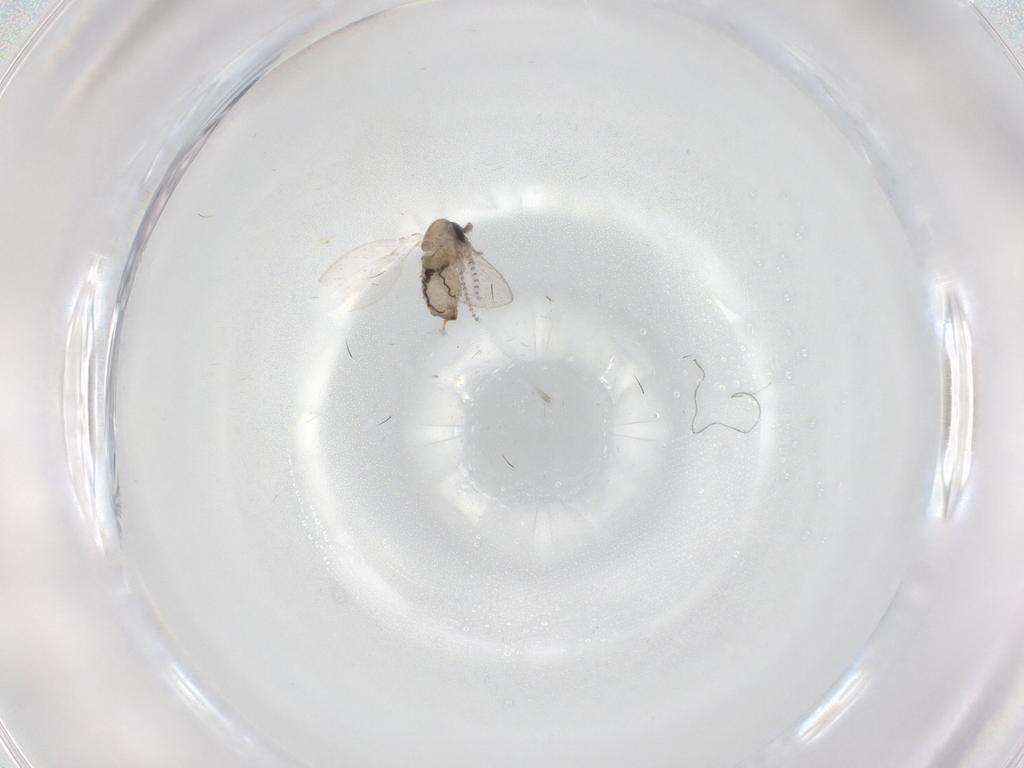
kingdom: Animalia
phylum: Arthropoda
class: Insecta
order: Diptera
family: Psychodidae
